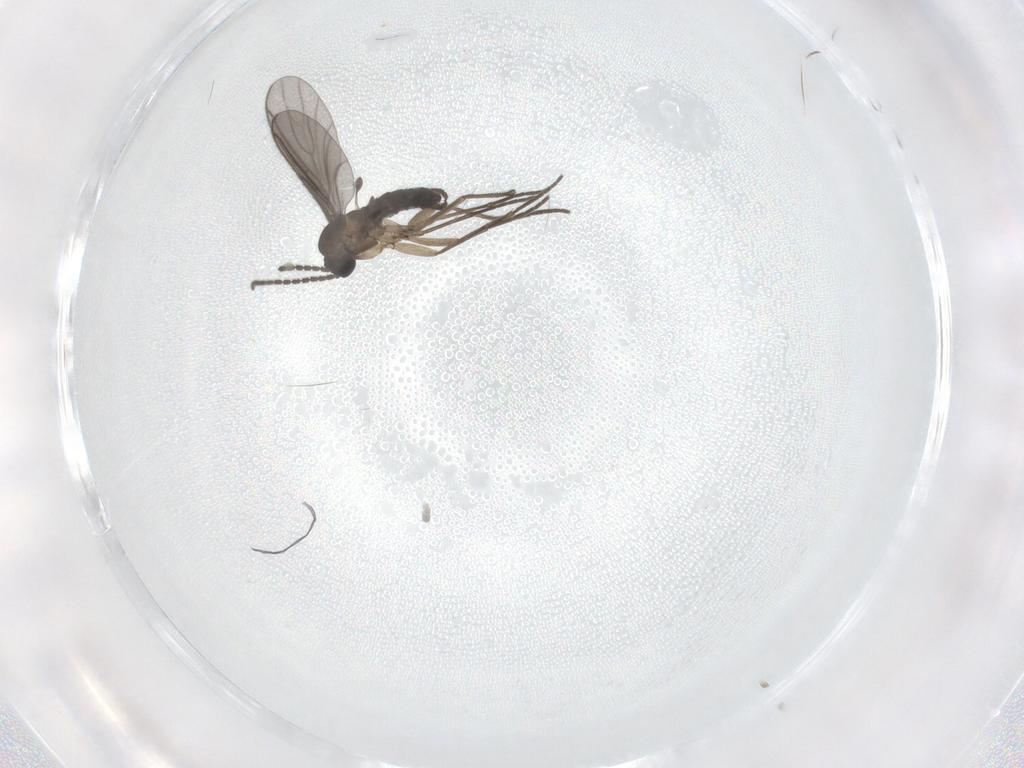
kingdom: Animalia
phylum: Arthropoda
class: Insecta
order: Diptera
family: Sciaridae
